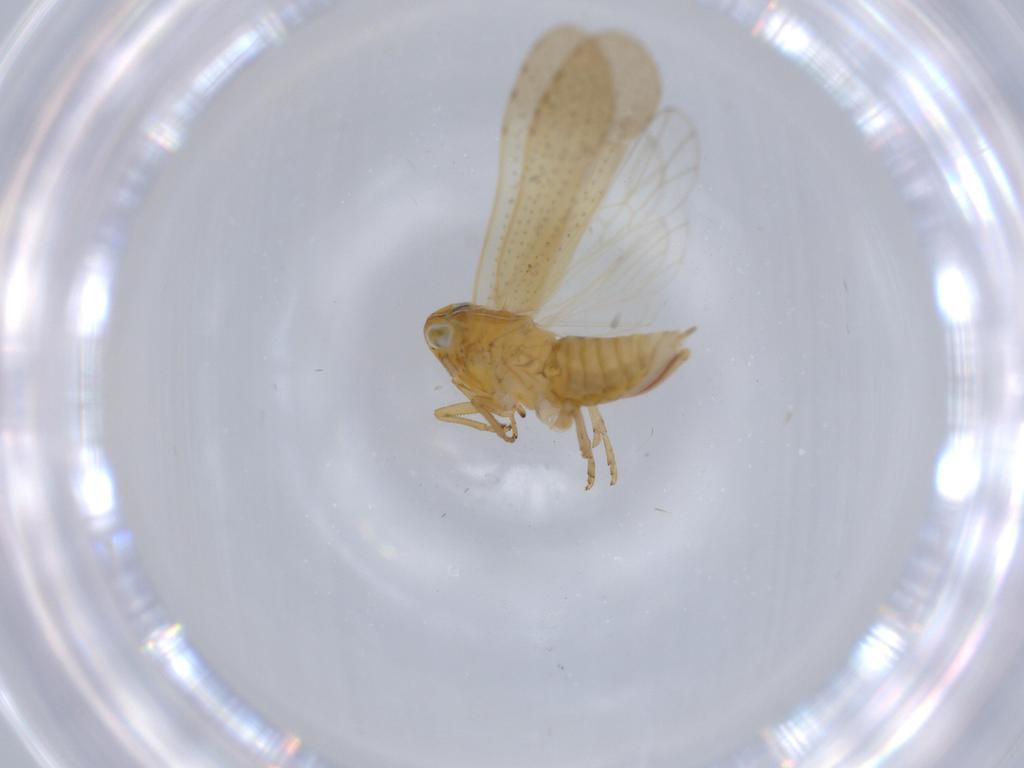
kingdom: Animalia
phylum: Arthropoda
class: Insecta
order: Hemiptera
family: Delphacidae
